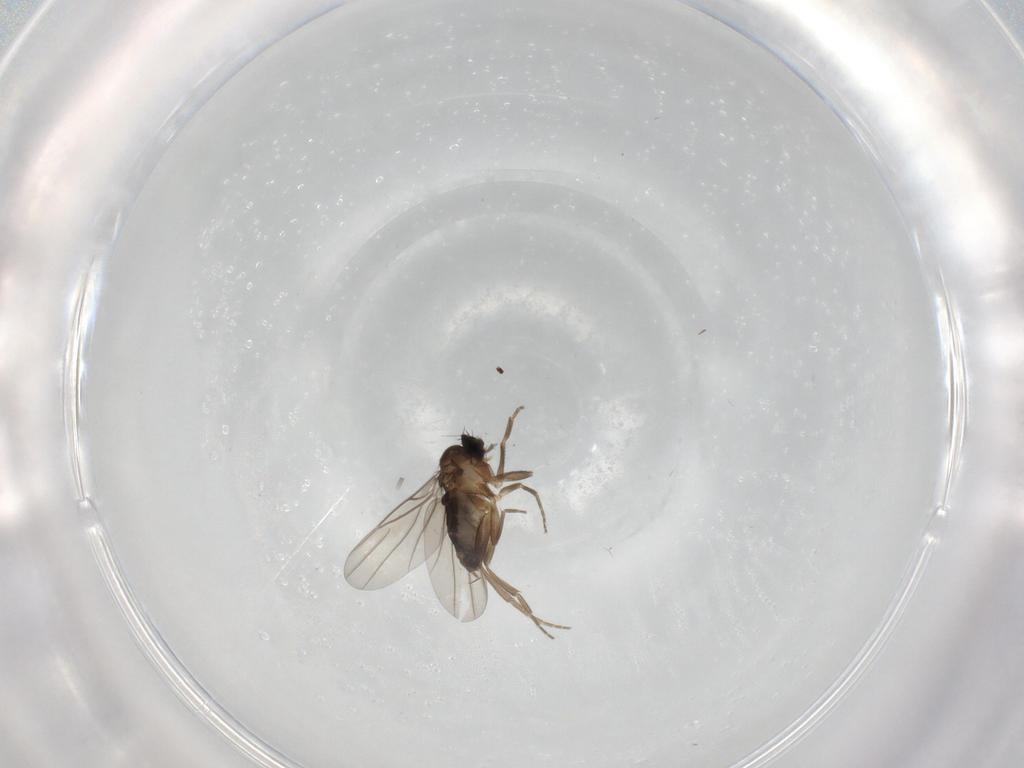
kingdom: Animalia
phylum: Arthropoda
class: Insecta
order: Diptera
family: Phoridae
